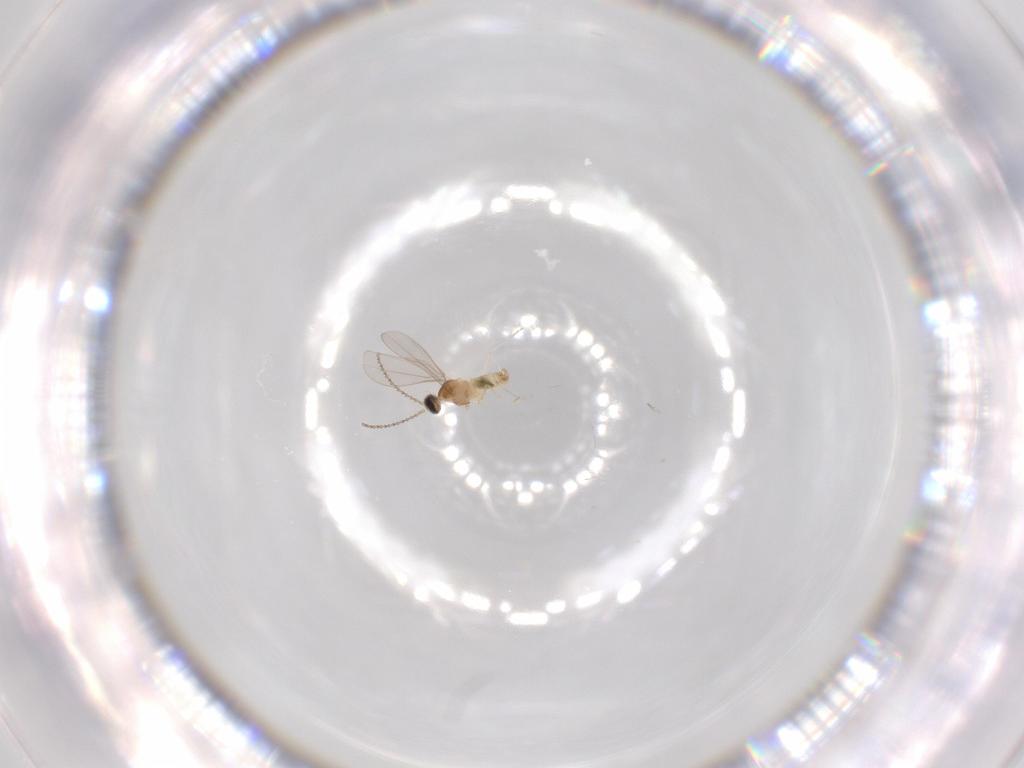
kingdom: Animalia
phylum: Arthropoda
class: Insecta
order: Diptera
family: Cecidomyiidae
